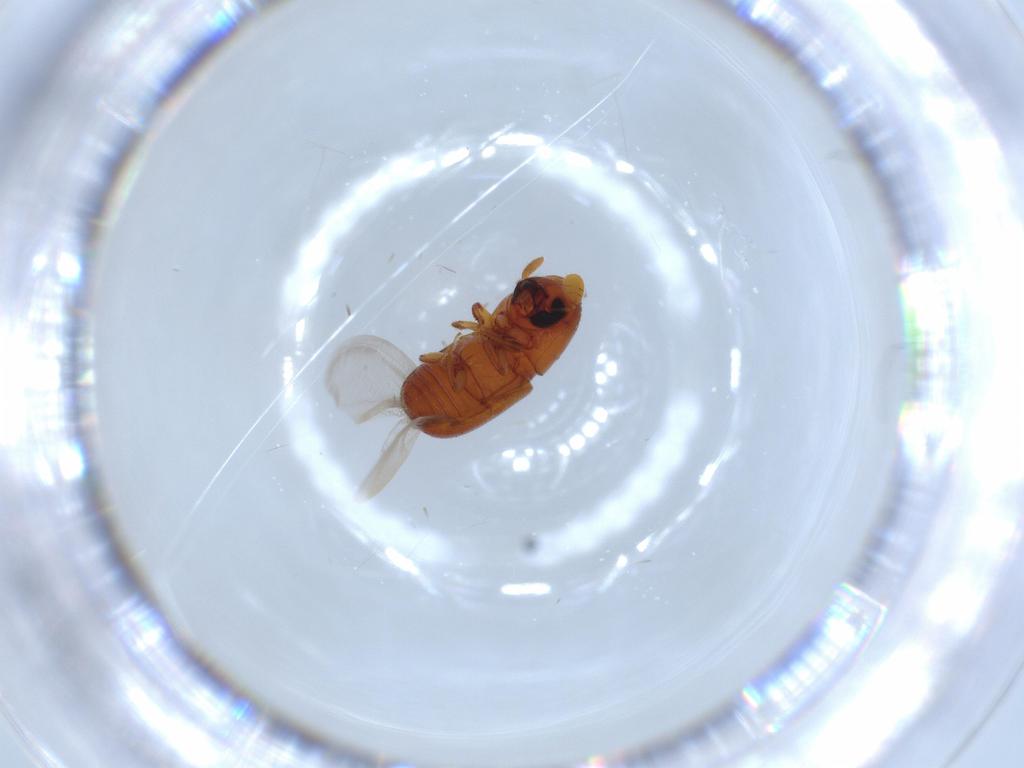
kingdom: Animalia
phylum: Arthropoda
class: Insecta
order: Coleoptera
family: Curculionidae
